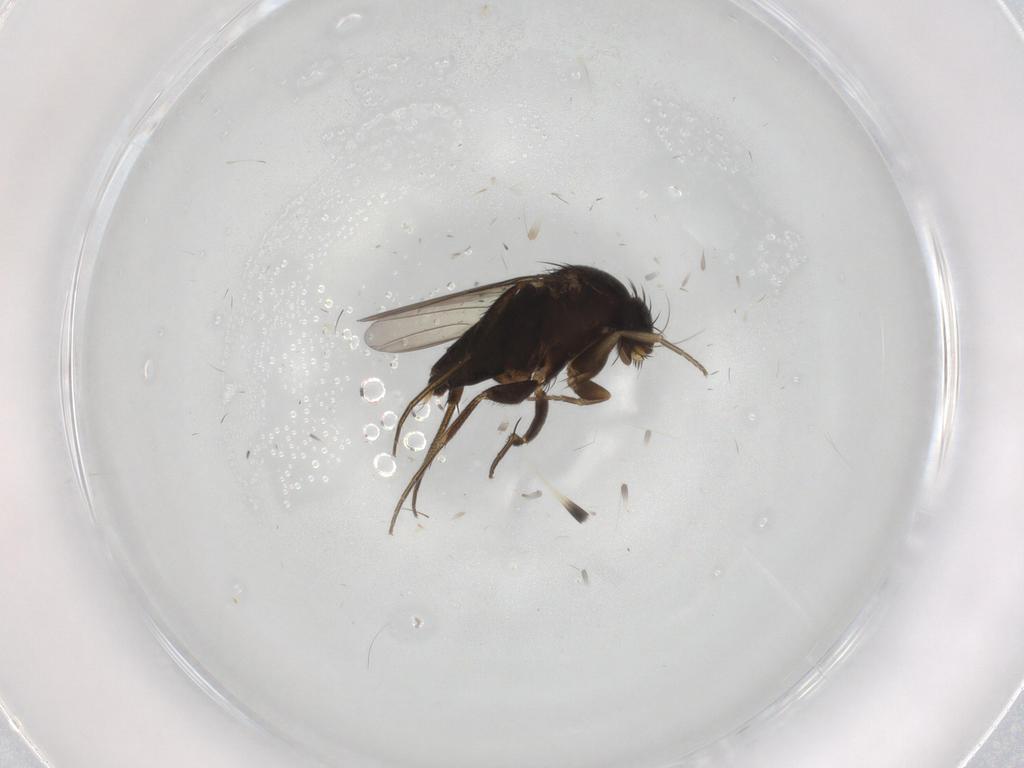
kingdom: Animalia
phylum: Arthropoda
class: Insecta
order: Diptera
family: Phoridae
